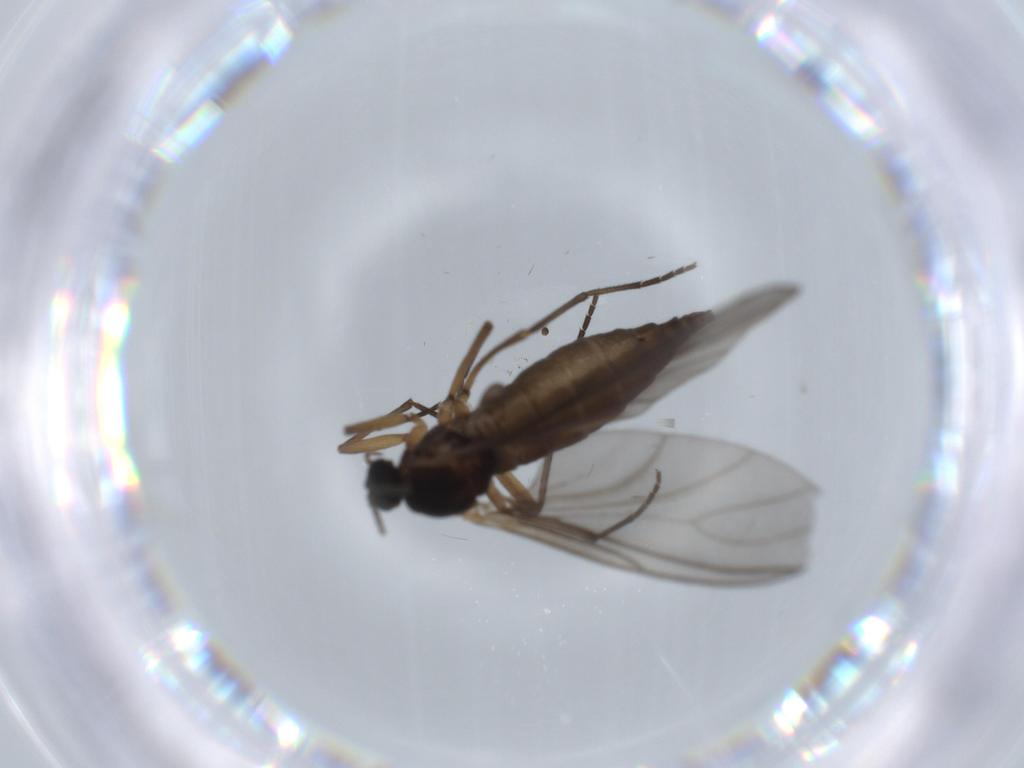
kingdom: Animalia
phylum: Arthropoda
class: Insecta
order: Diptera
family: Sciaridae
